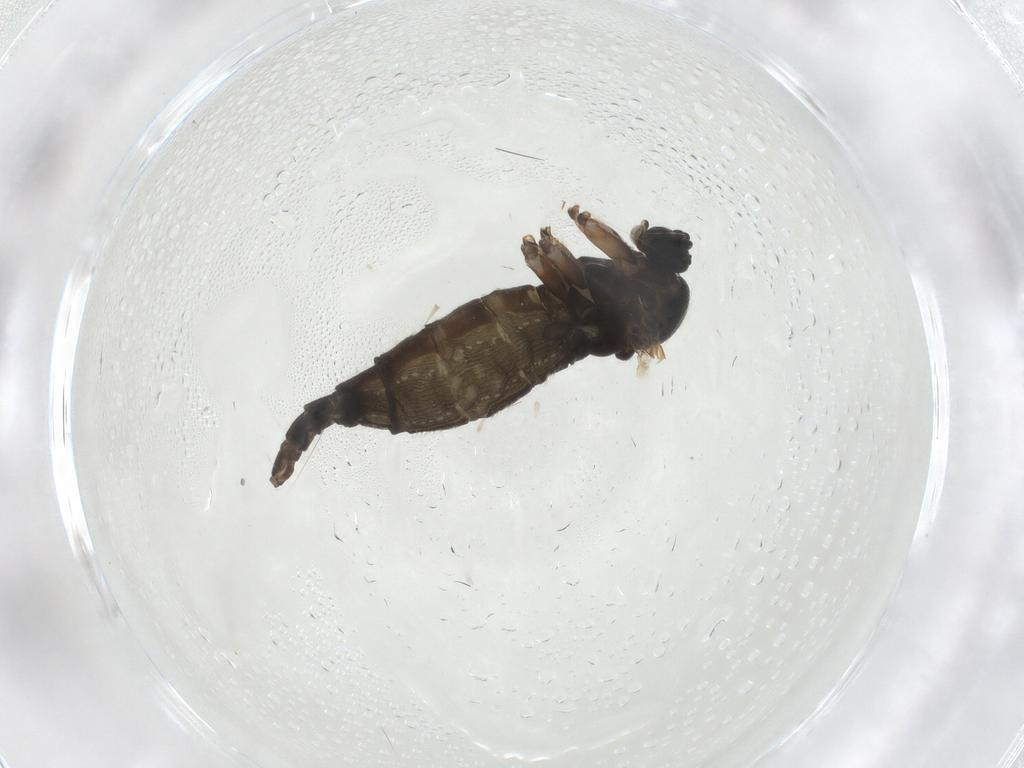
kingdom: Animalia
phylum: Arthropoda
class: Insecta
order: Diptera
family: Sciaridae
